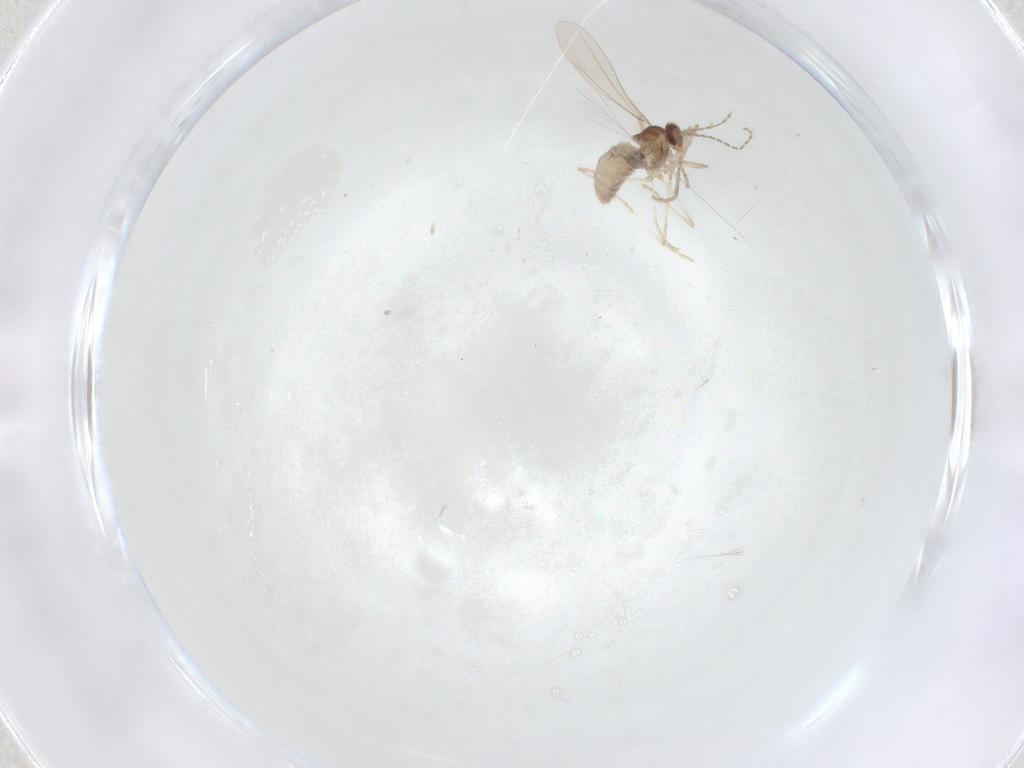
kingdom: Animalia
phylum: Arthropoda
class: Insecta
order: Diptera
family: Cecidomyiidae
